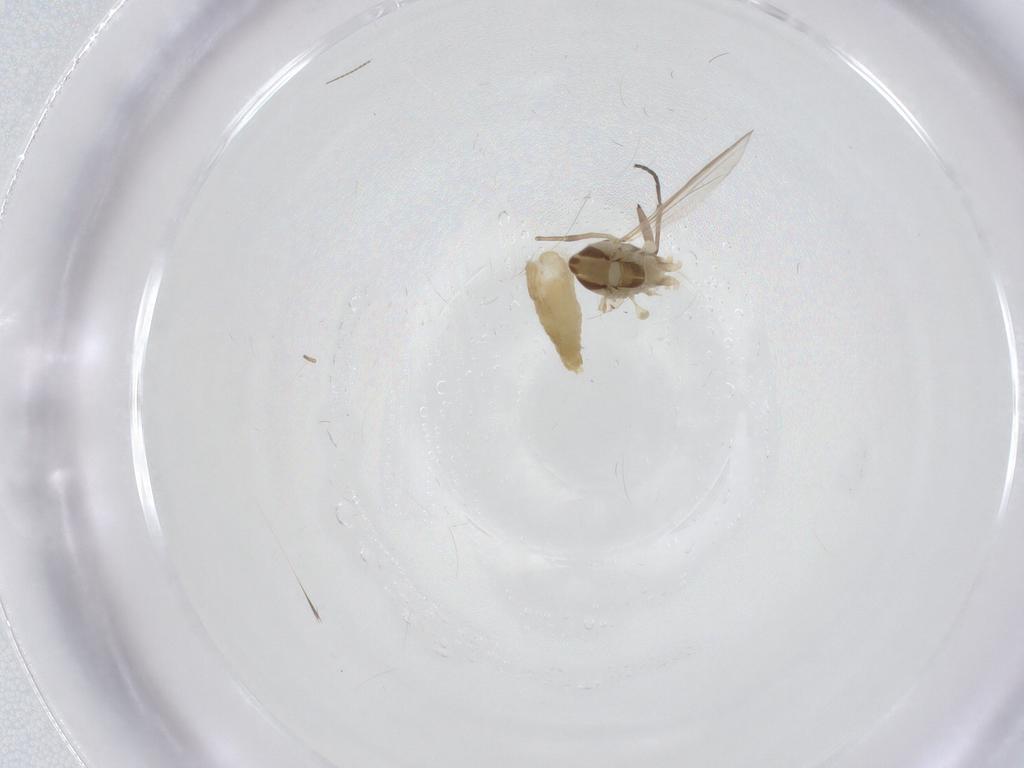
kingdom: Animalia
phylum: Arthropoda
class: Insecta
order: Diptera
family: Chironomidae
